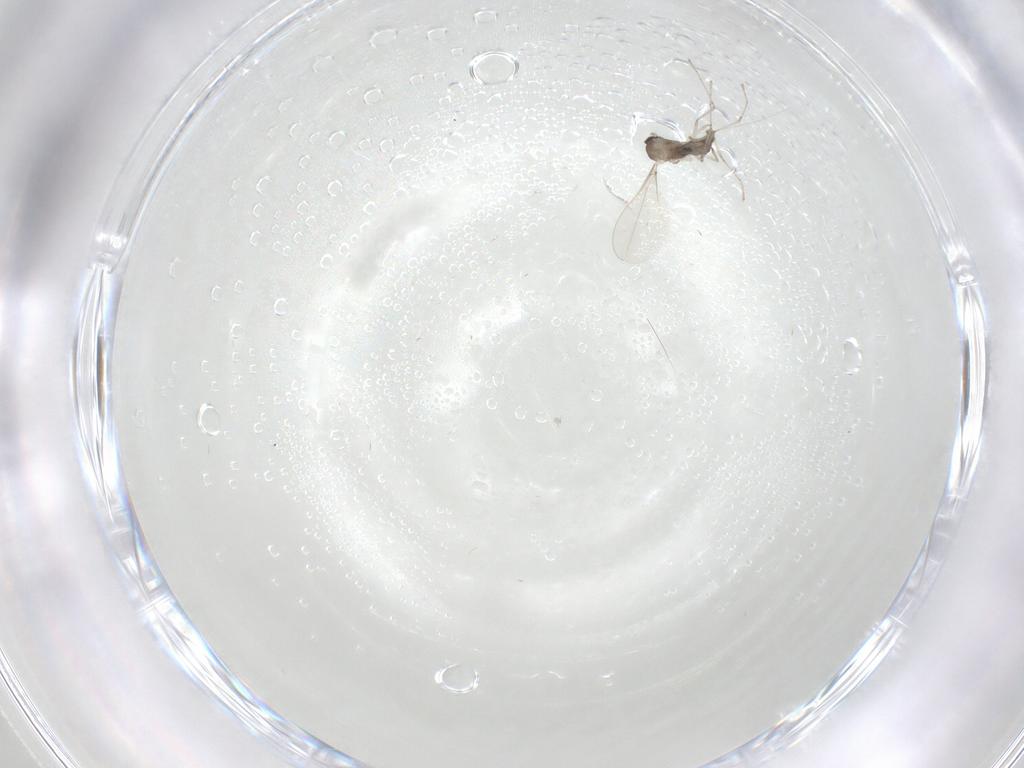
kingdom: Animalia
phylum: Arthropoda
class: Insecta
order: Diptera
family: Cecidomyiidae
